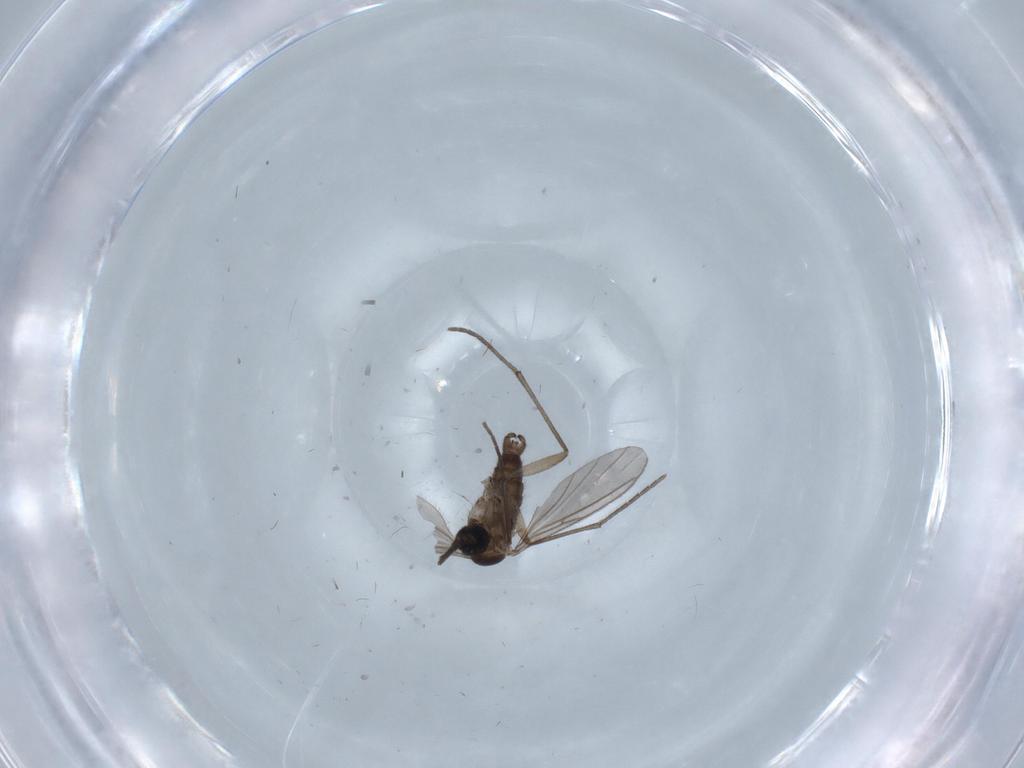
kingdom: Animalia
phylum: Arthropoda
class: Insecta
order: Diptera
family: Sciaridae
